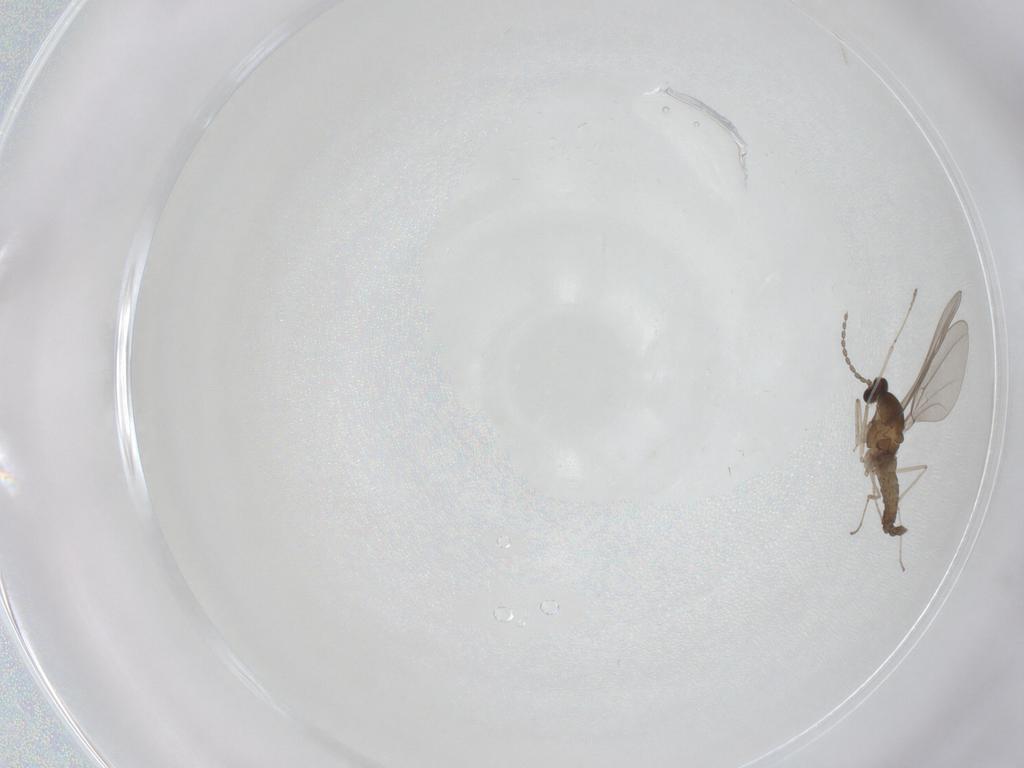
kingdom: Animalia
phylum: Arthropoda
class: Insecta
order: Diptera
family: Cecidomyiidae
